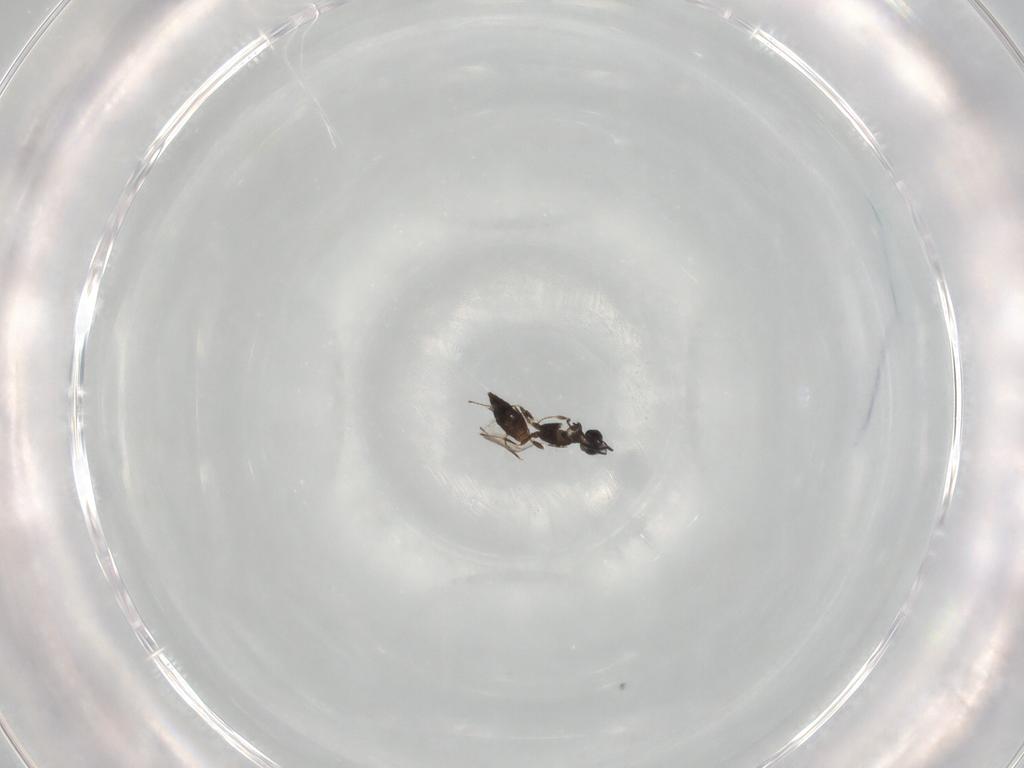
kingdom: Animalia
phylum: Arthropoda
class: Insecta
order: Hymenoptera
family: Scelionidae
